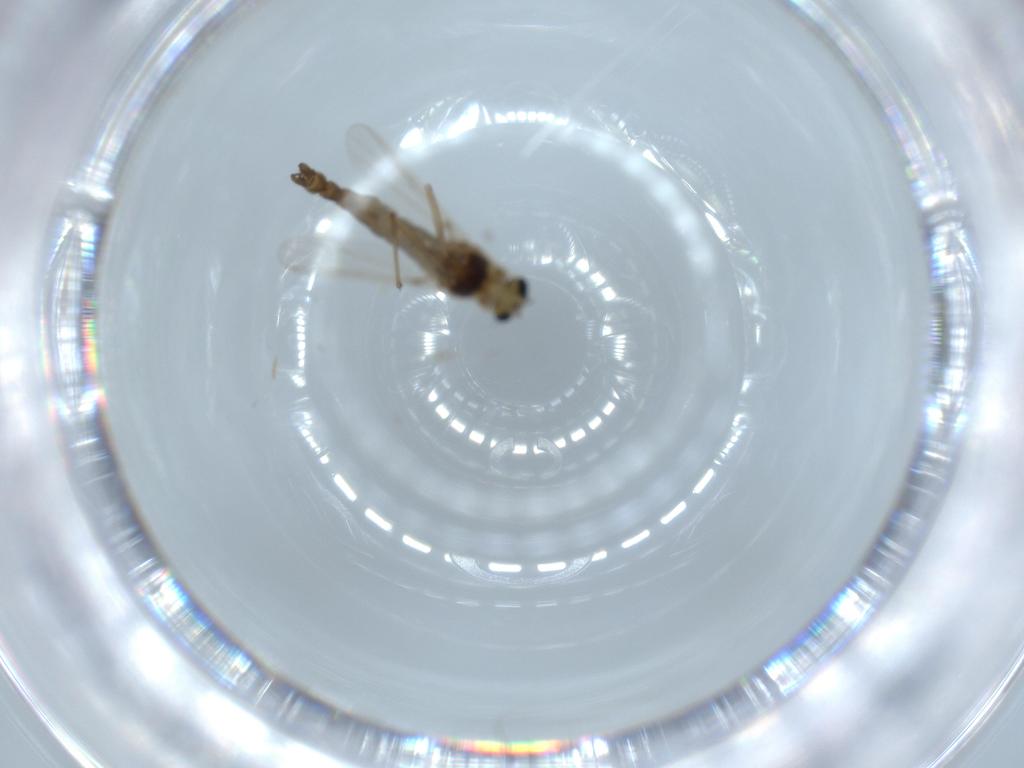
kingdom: Animalia
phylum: Arthropoda
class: Insecta
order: Diptera
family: Chironomidae
